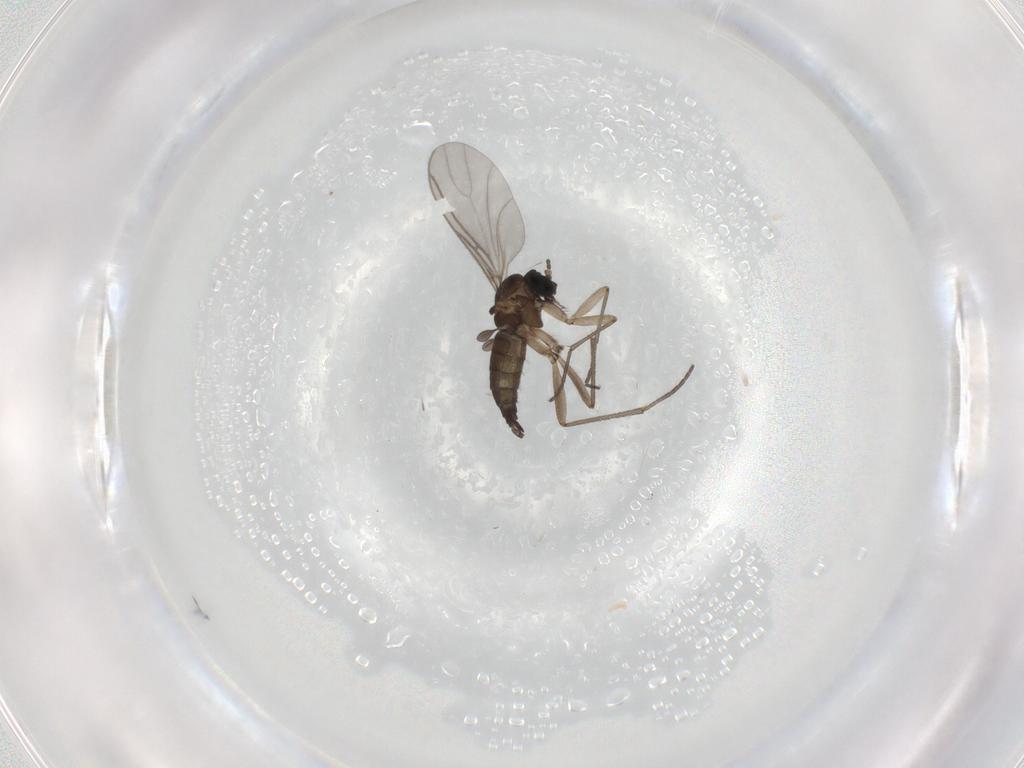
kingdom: Animalia
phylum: Arthropoda
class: Insecta
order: Diptera
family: Sciaridae
